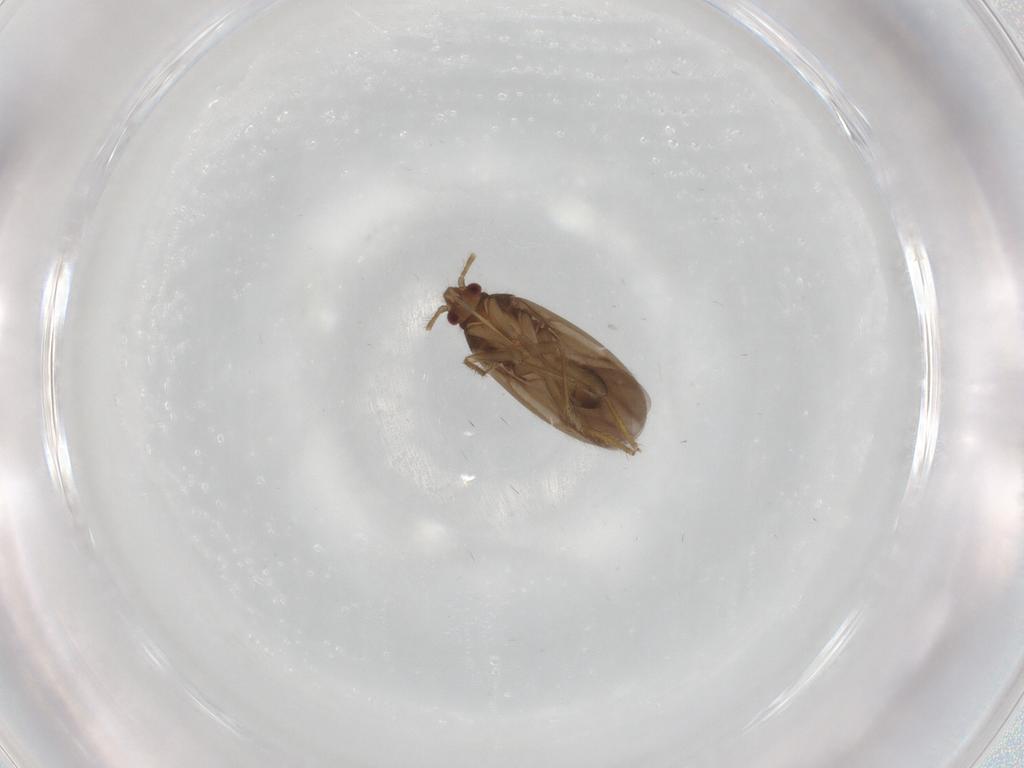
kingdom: Animalia
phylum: Arthropoda
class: Insecta
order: Hemiptera
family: Ceratocombidae
